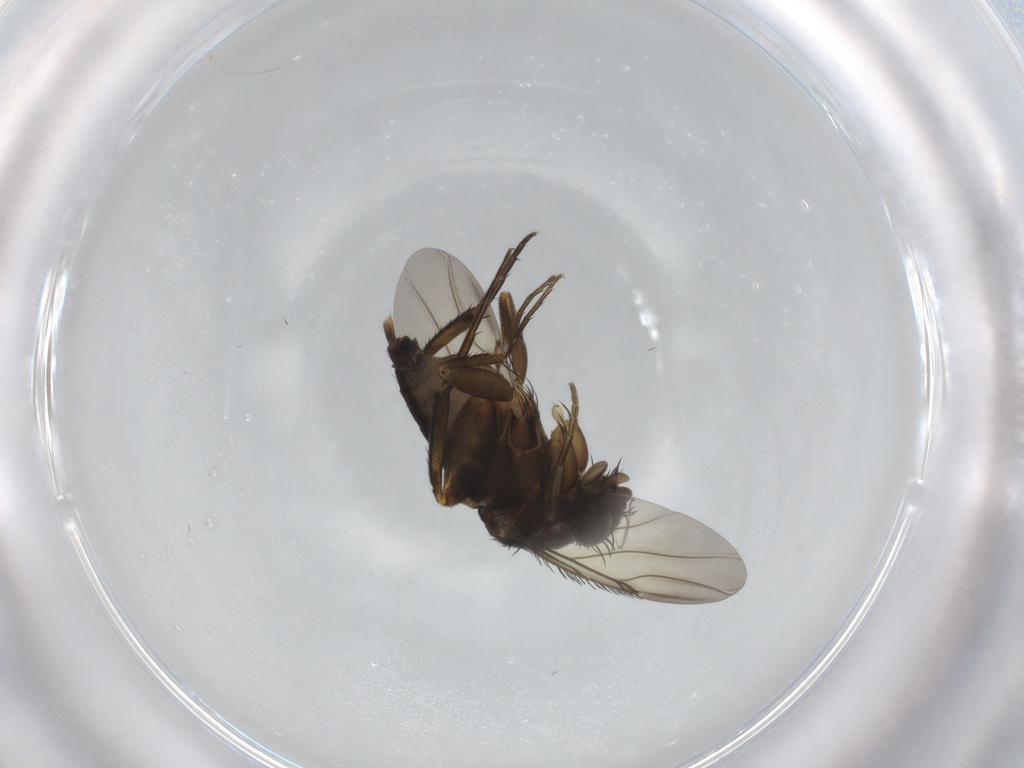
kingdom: Animalia
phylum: Arthropoda
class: Insecta
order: Diptera
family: Phoridae
